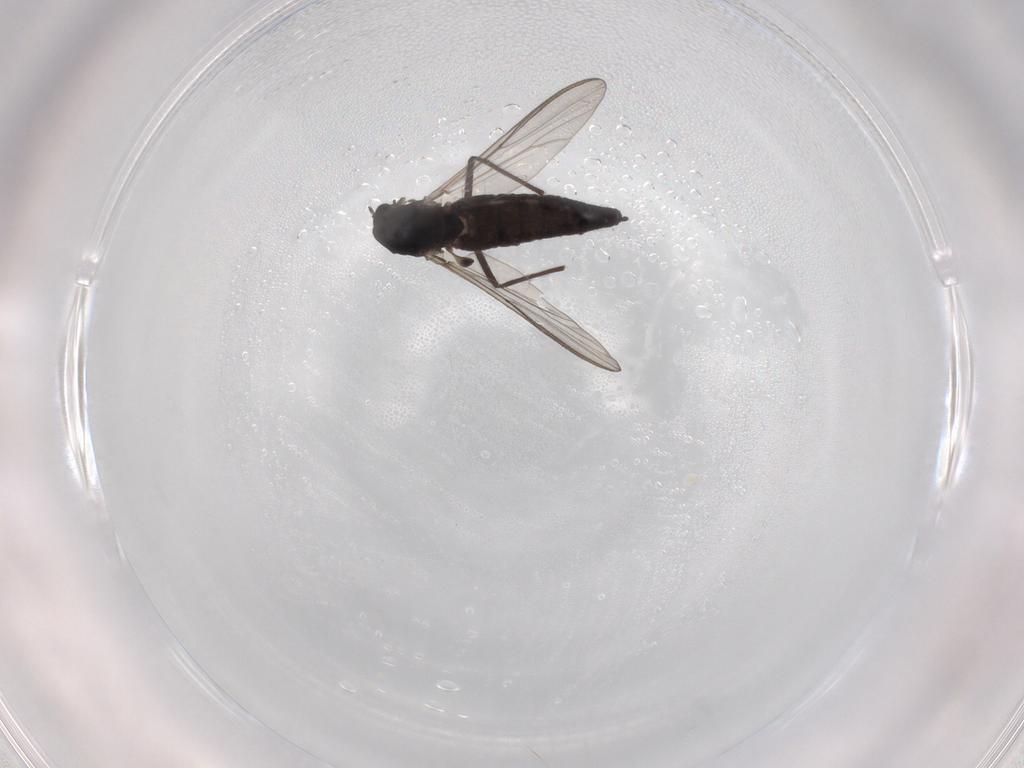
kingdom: Animalia
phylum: Arthropoda
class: Insecta
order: Diptera
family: Chironomidae
